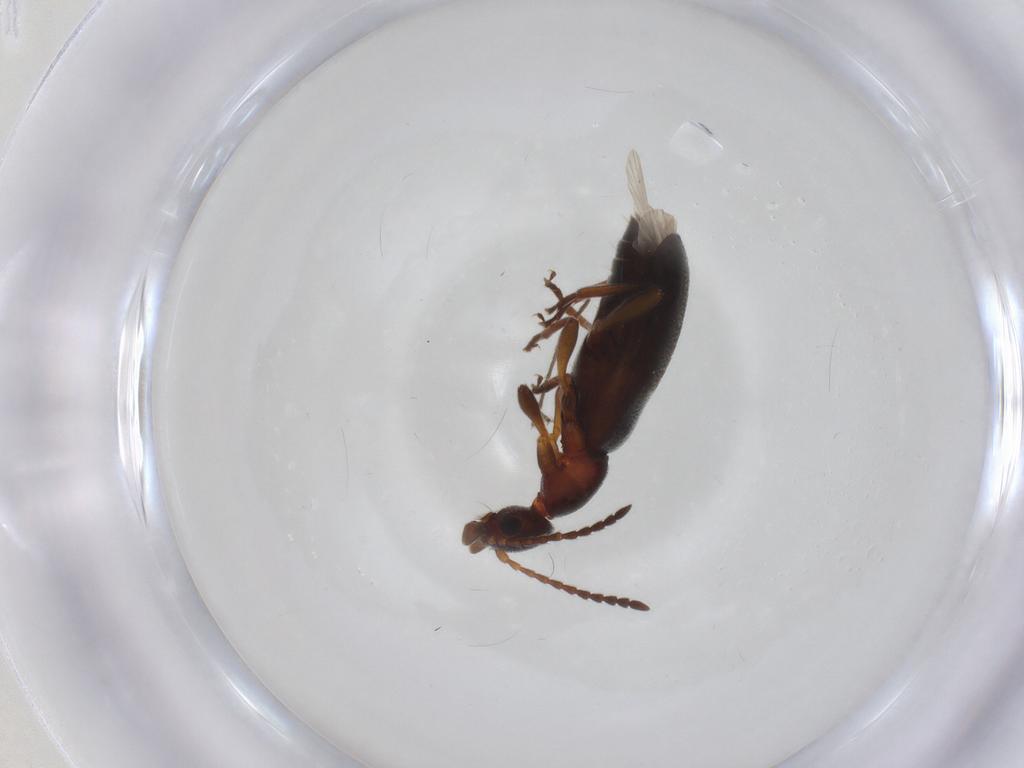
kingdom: Animalia
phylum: Arthropoda
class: Insecta
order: Coleoptera
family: Anthicidae
